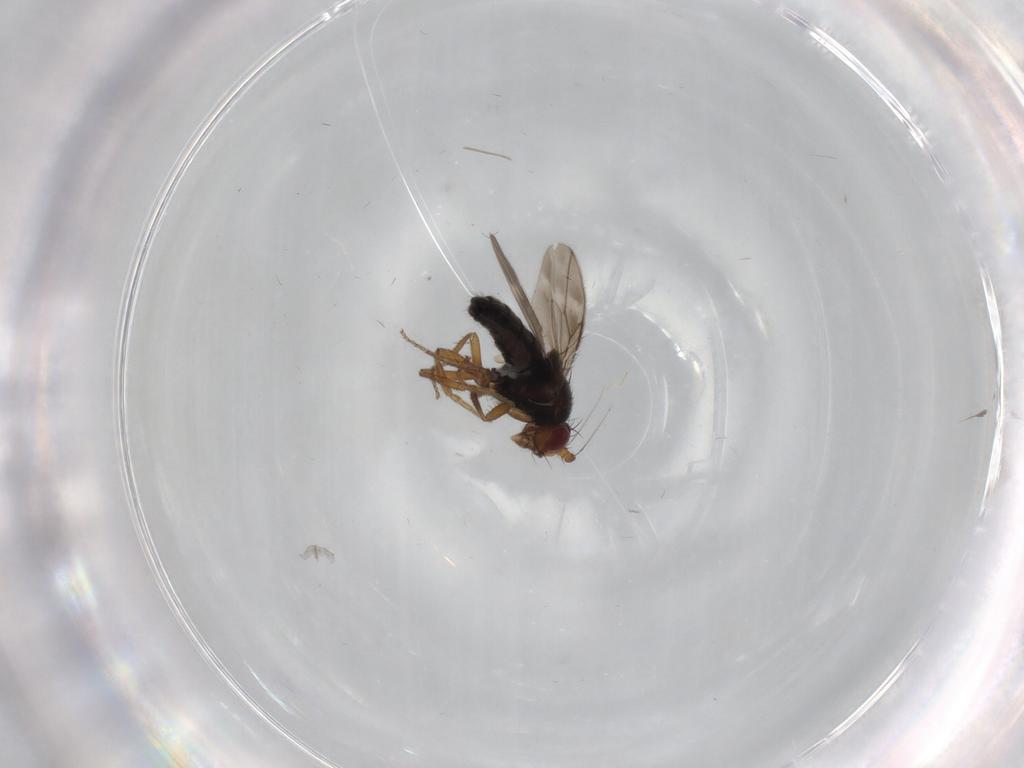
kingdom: Animalia
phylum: Arthropoda
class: Insecta
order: Diptera
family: Sphaeroceridae
